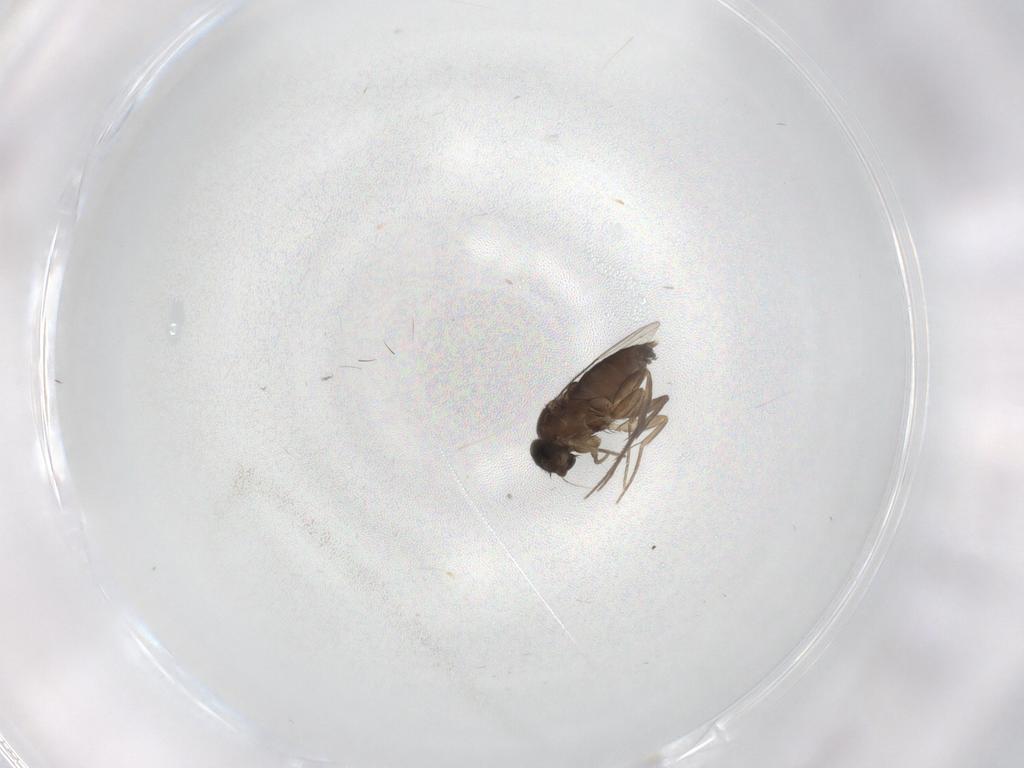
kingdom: Animalia
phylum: Arthropoda
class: Insecta
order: Diptera
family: Phoridae
